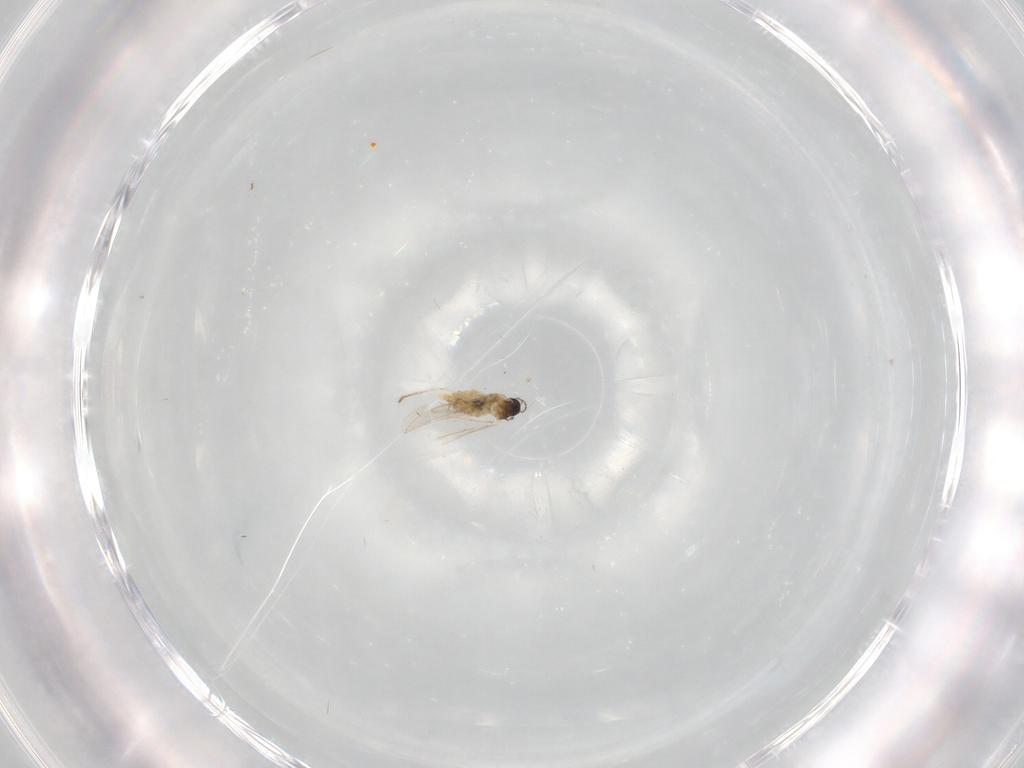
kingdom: Animalia
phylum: Arthropoda
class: Insecta
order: Diptera
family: Cecidomyiidae
